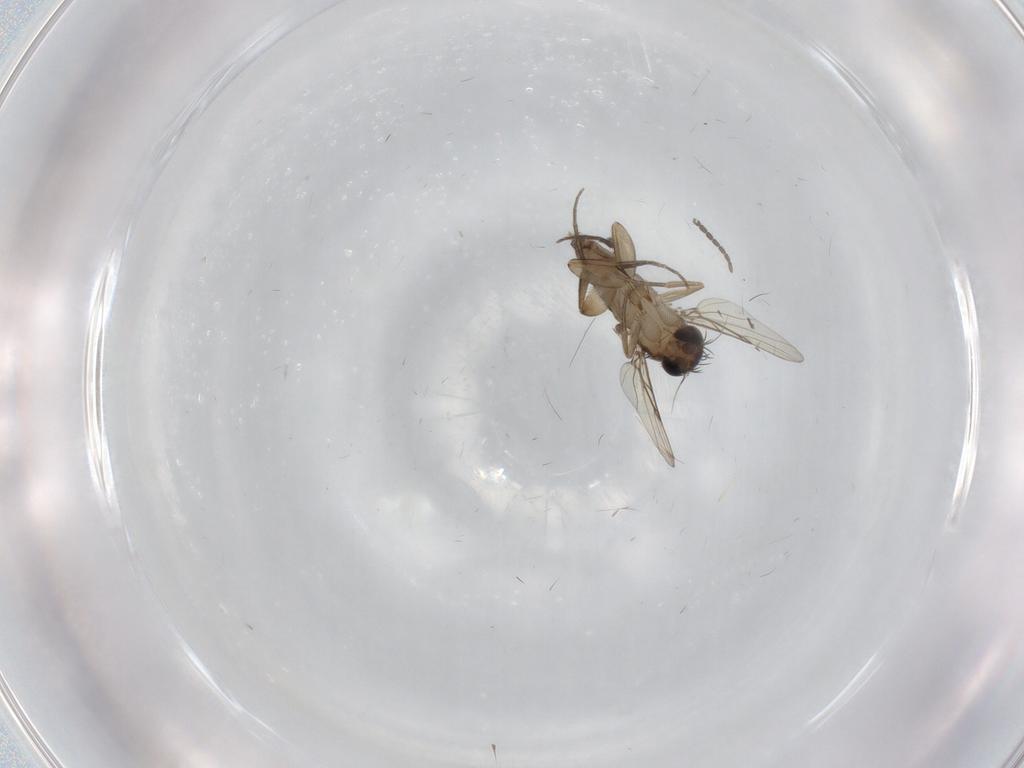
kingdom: Animalia
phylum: Arthropoda
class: Insecta
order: Diptera
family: Phoridae
